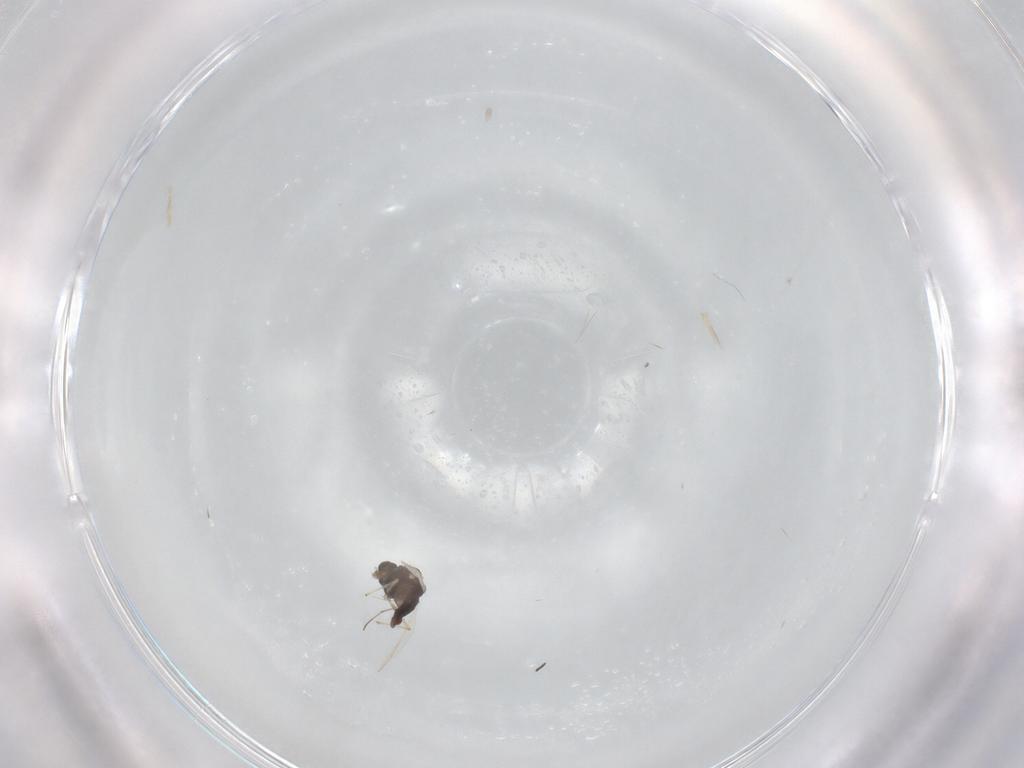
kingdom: Animalia
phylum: Arthropoda
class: Insecta
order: Diptera
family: Chironomidae
